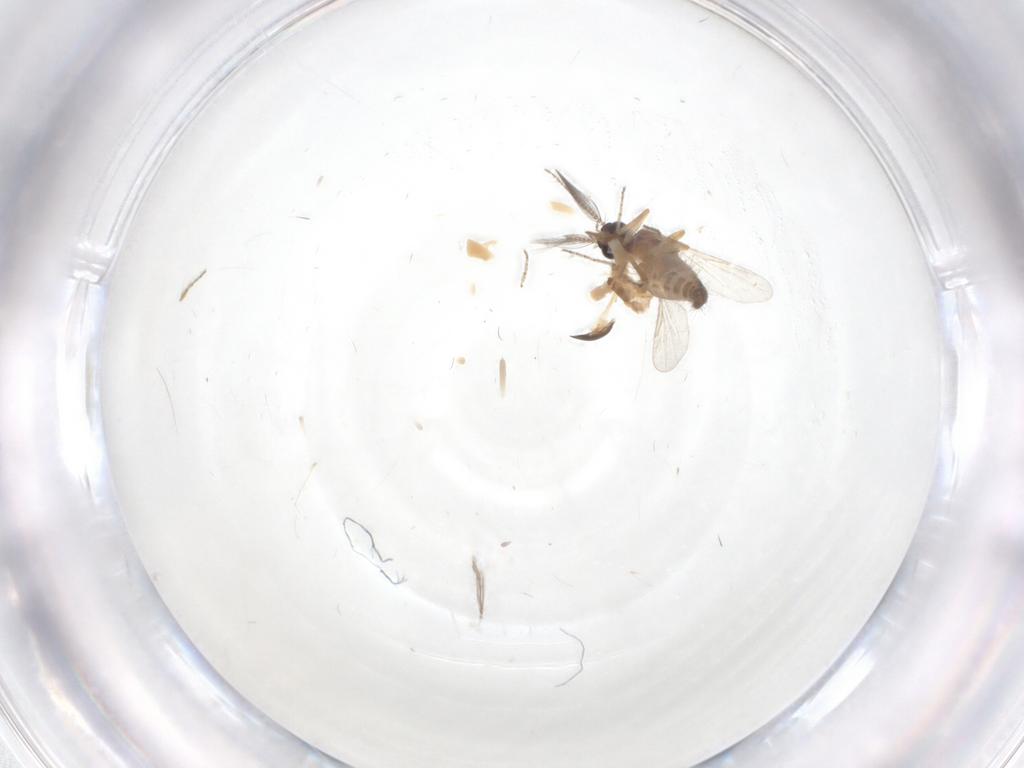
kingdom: Animalia
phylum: Arthropoda
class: Insecta
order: Diptera
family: Ceratopogonidae
